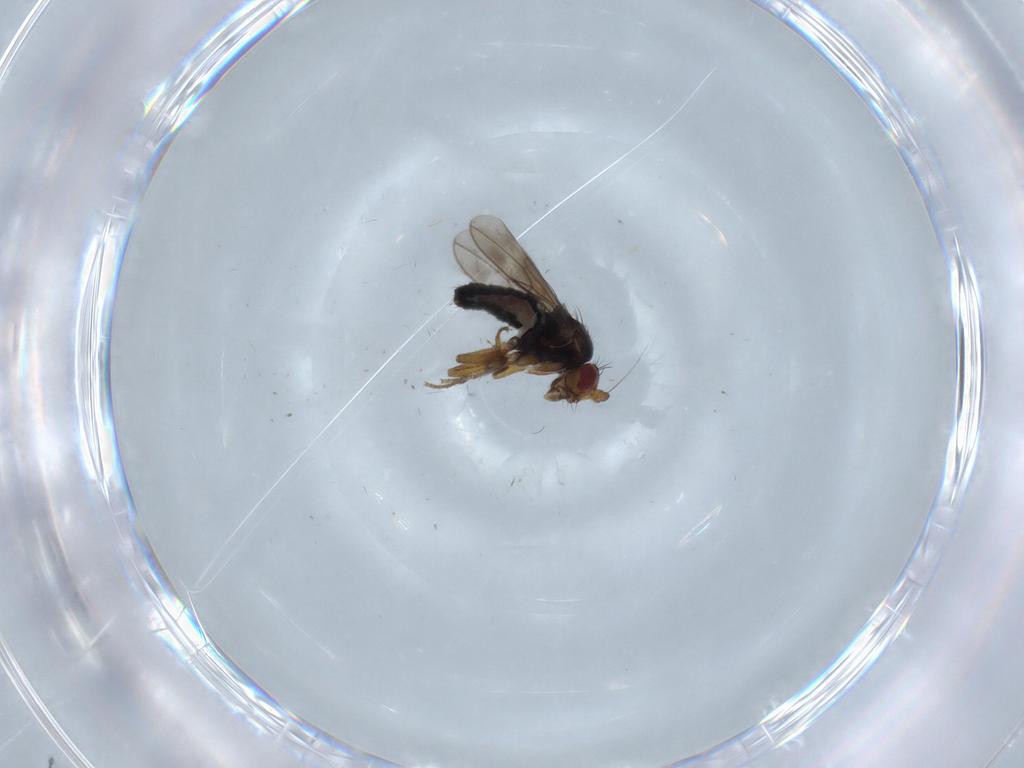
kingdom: Animalia
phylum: Arthropoda
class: Insecta
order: Diptera
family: Sphaeroceridae
